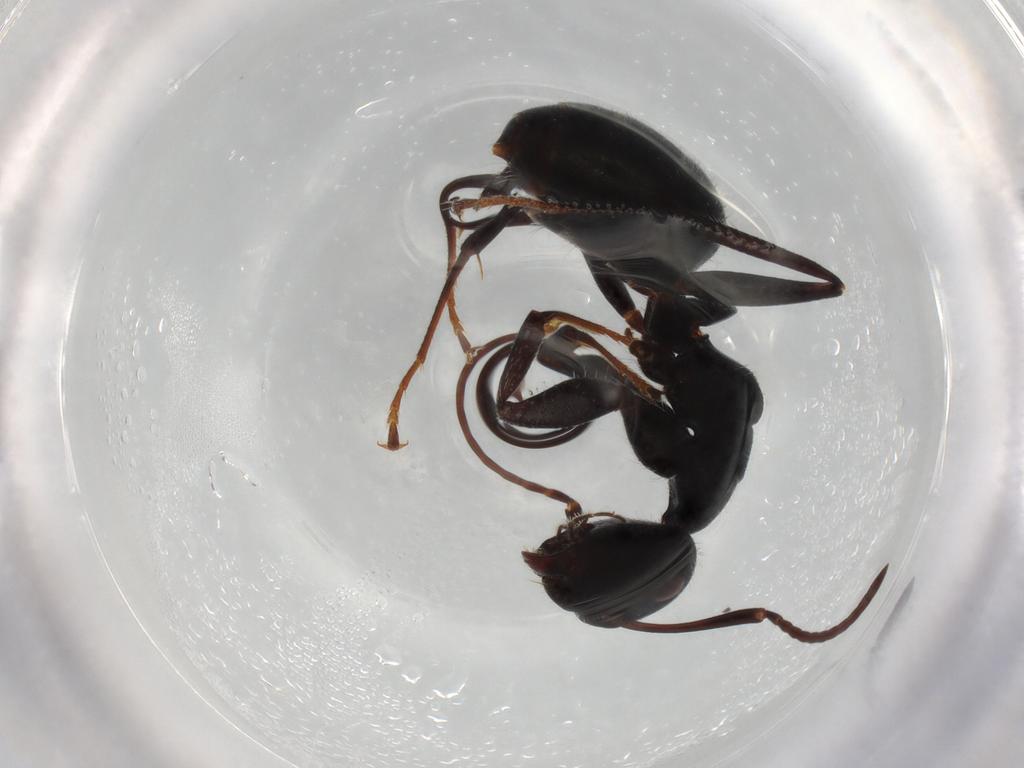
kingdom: Animalia
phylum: Arthropoda
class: Insecta
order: Hymenoptera
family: Formicidae
